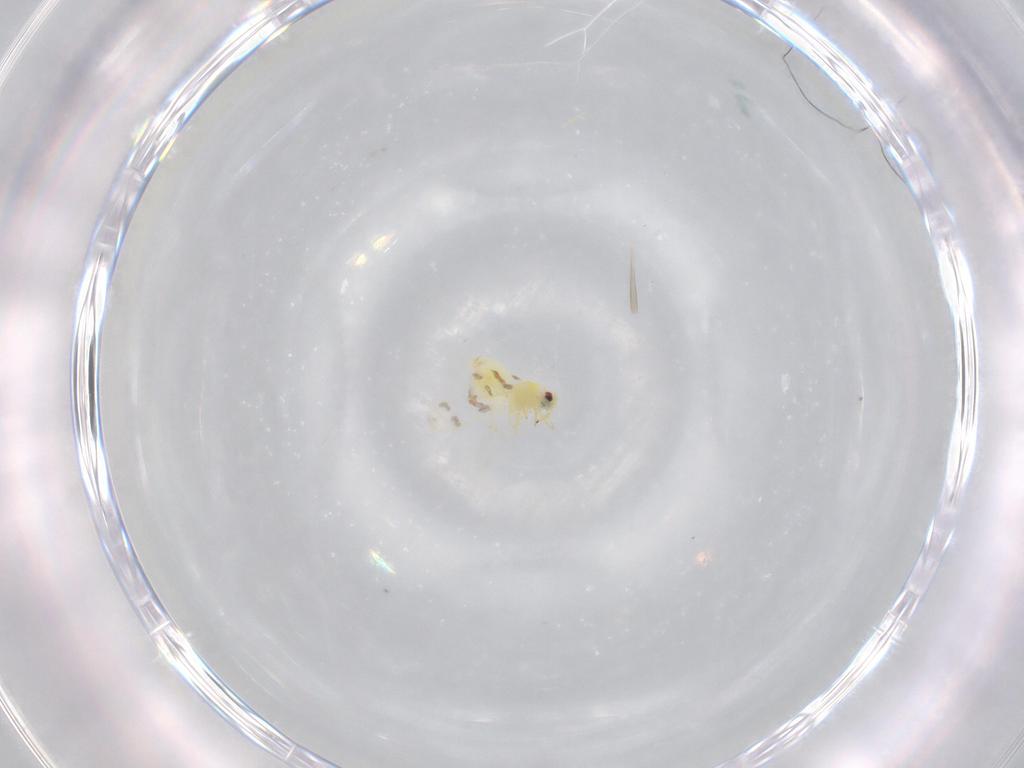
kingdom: Animalia
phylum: Arthropoda
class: Insecta
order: Hemiptera
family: Aleyrodidae
